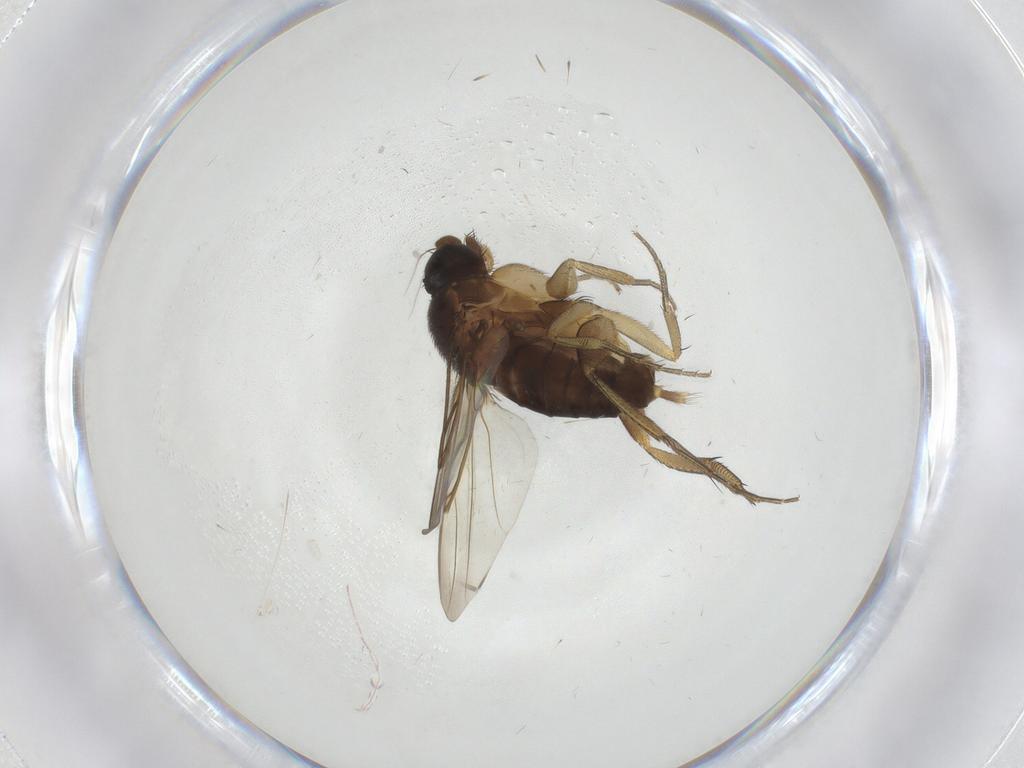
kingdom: Animalia
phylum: Arthropoda
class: Insecta
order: Diptera
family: Phoridae
